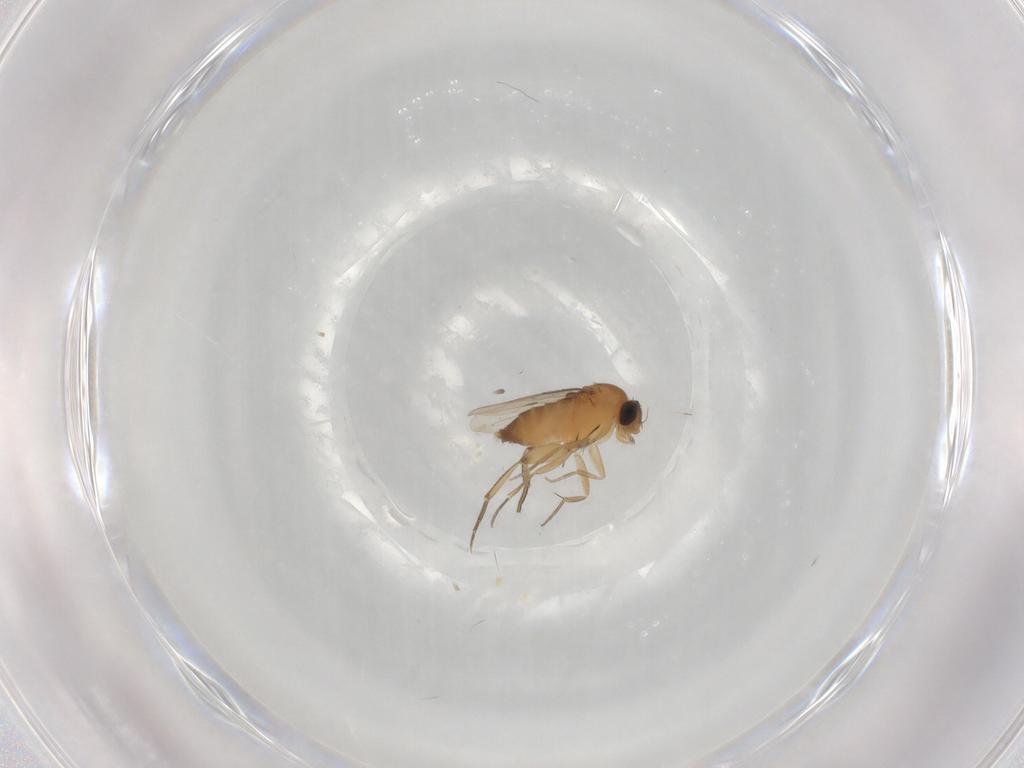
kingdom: Animalia
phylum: Arthropoda
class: Insecta
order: Diptera
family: Phoridae
